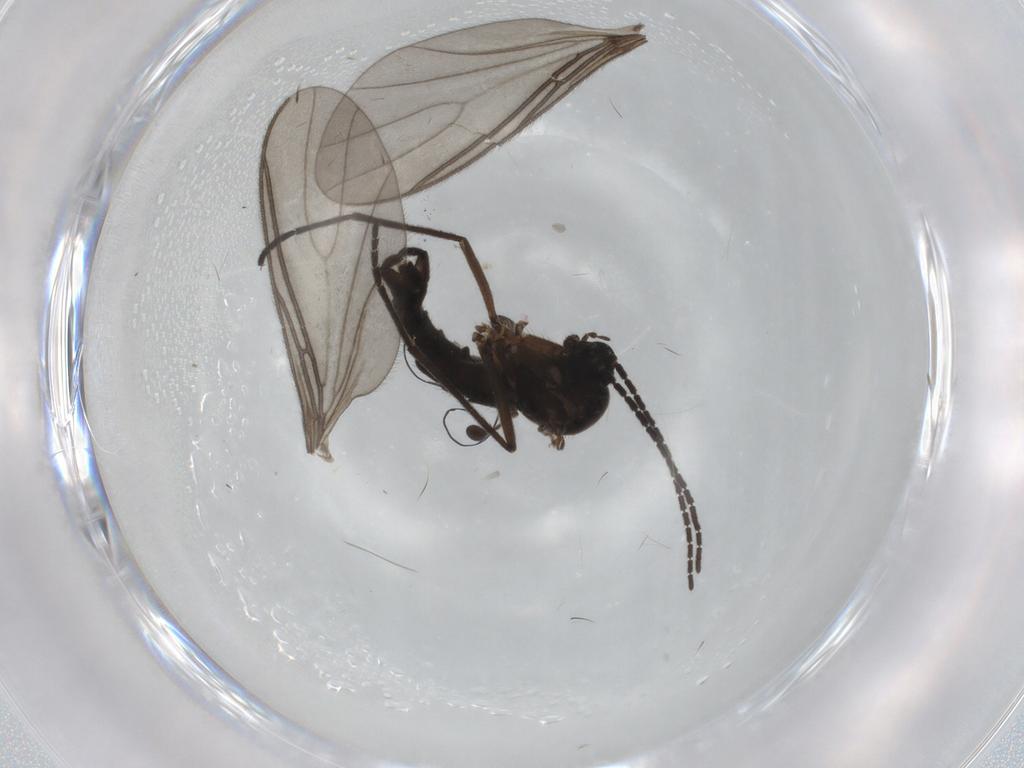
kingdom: Animalia
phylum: Arthropoda
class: Insecta
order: Diptera
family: Sciaridae
